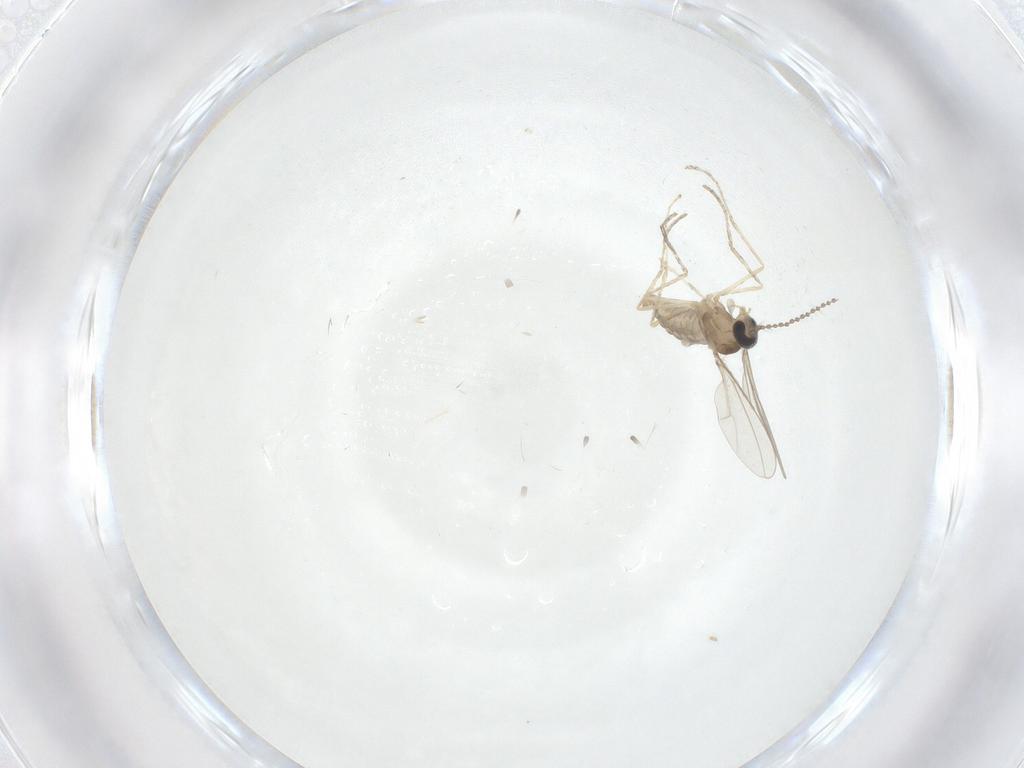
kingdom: Animalia
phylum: Arthropoda
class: Insecta
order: Diptera
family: Cecidomyiidae
